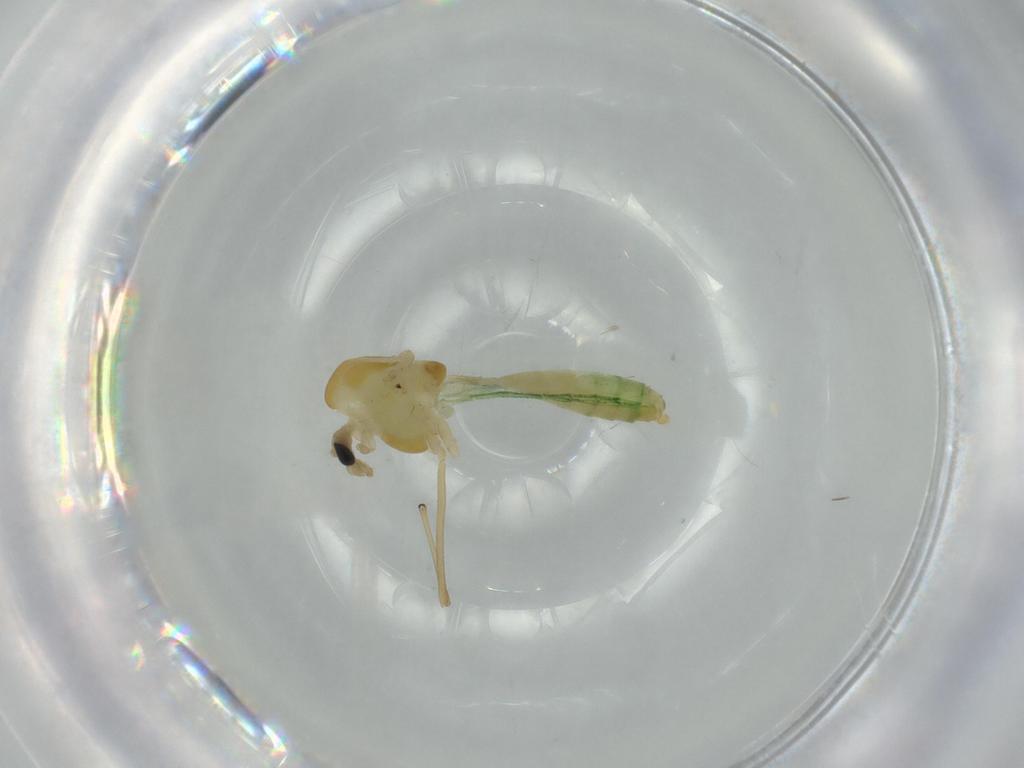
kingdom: Animalia
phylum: Arthropoda
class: Insecta
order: Diptera
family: Chironomidae
